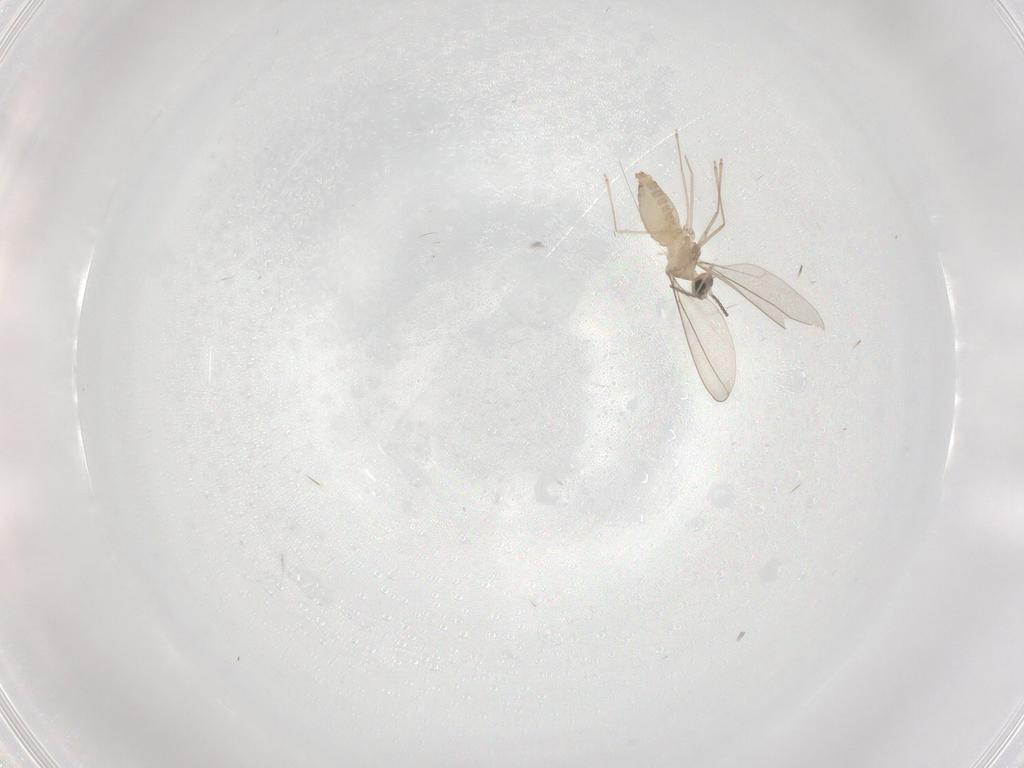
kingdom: Animalia
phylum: Arthropoda
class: Insecta
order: Diptera
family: Cecidomyiidae
